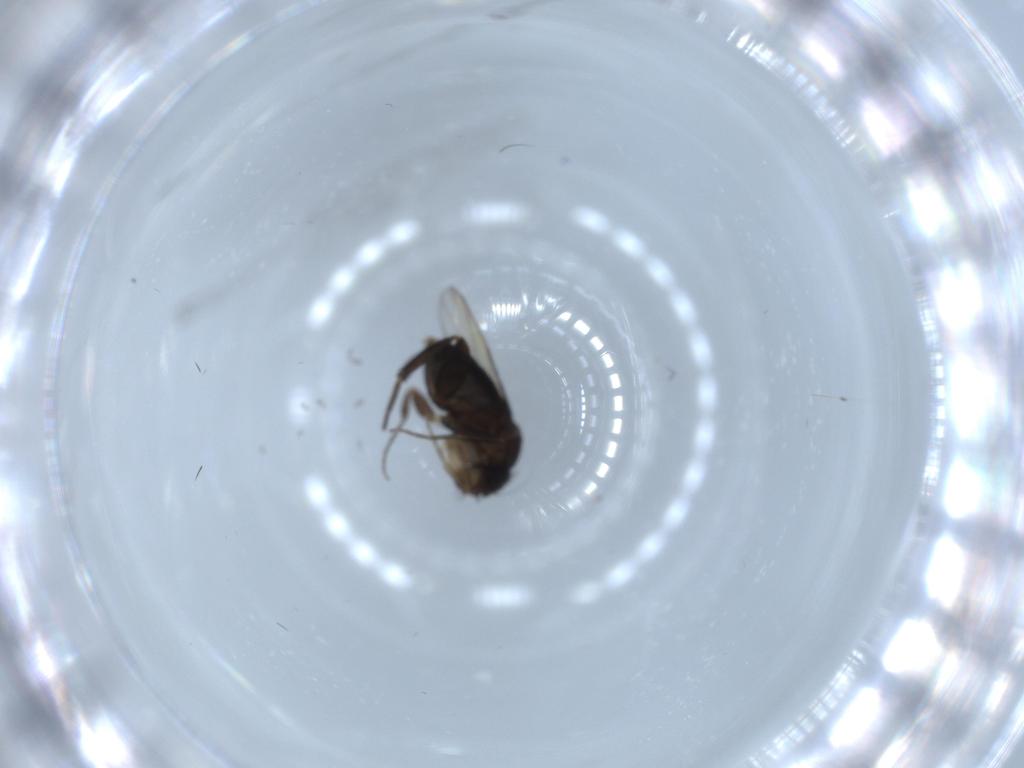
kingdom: Animalia
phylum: Arthropoda
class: Insecta
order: Diptera
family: Phoridae
